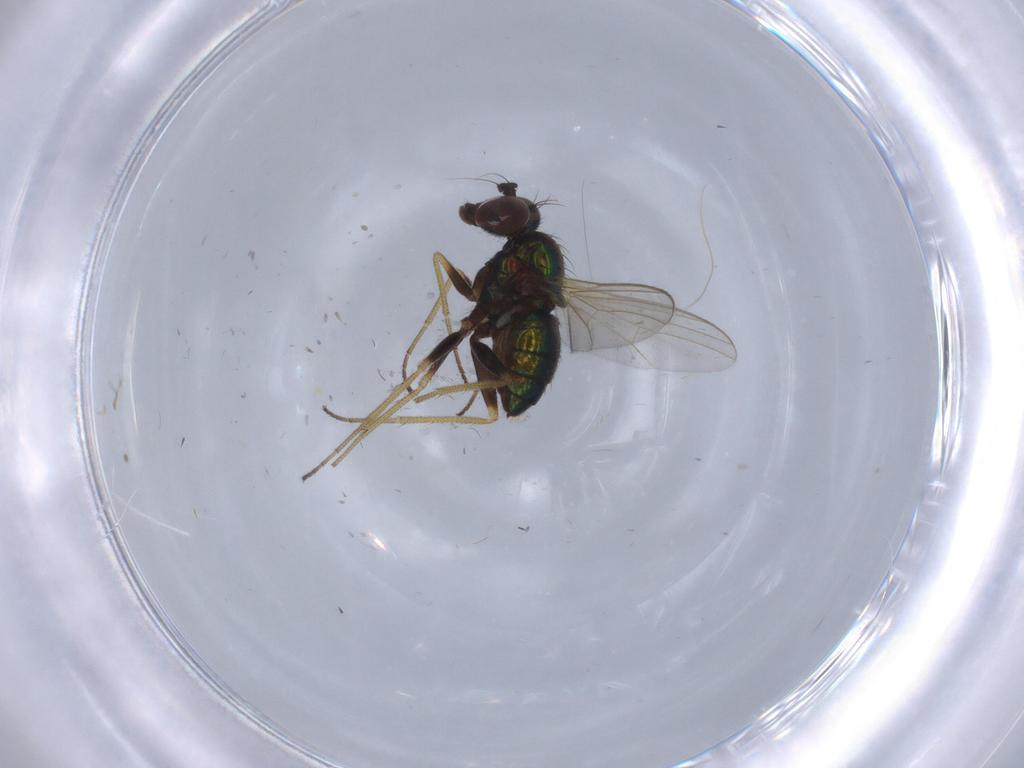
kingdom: Animalia
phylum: Arthropoda
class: Insecta
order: Diptera
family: Dolichopodidae
